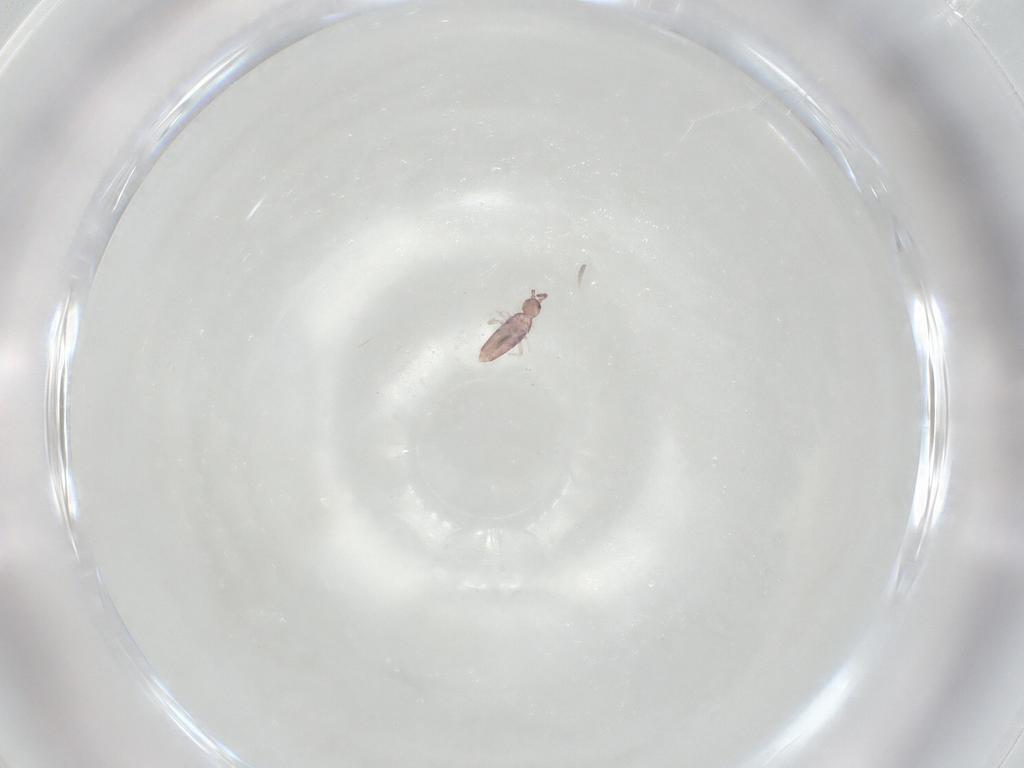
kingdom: Animalia
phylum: Arthropoda
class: Collembola
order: Entomobryomorpha
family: Entomobryidae
